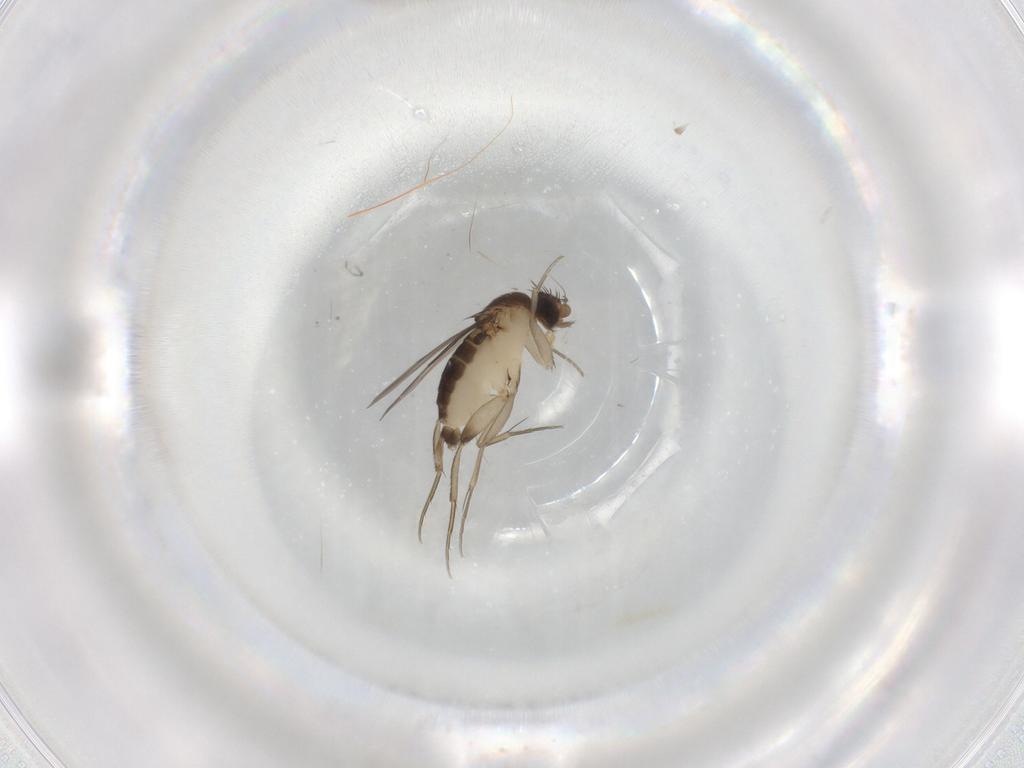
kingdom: Animalia
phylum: Arthropoda
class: Insecta
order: Diptera
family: Phoridae
